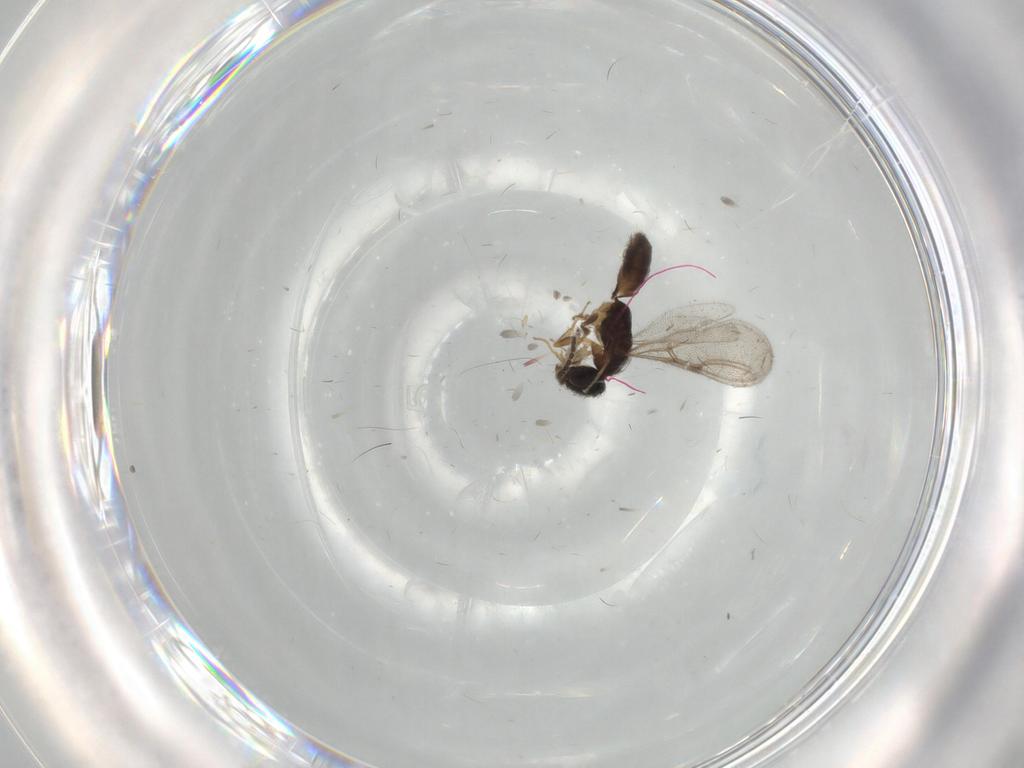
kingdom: Animalia
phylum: Arthropoda
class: Insecta
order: Hymenoptera
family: Bethylidae
